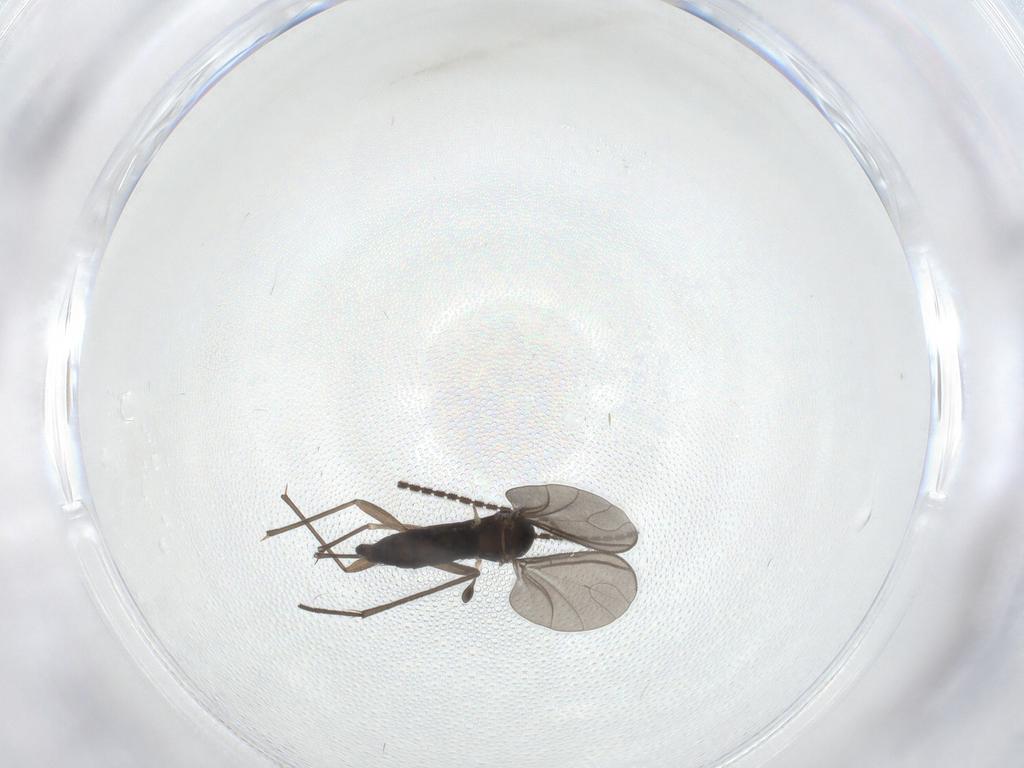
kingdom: Animalia
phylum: Arthropoda
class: Insecta
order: Diptera
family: Sciaridae
